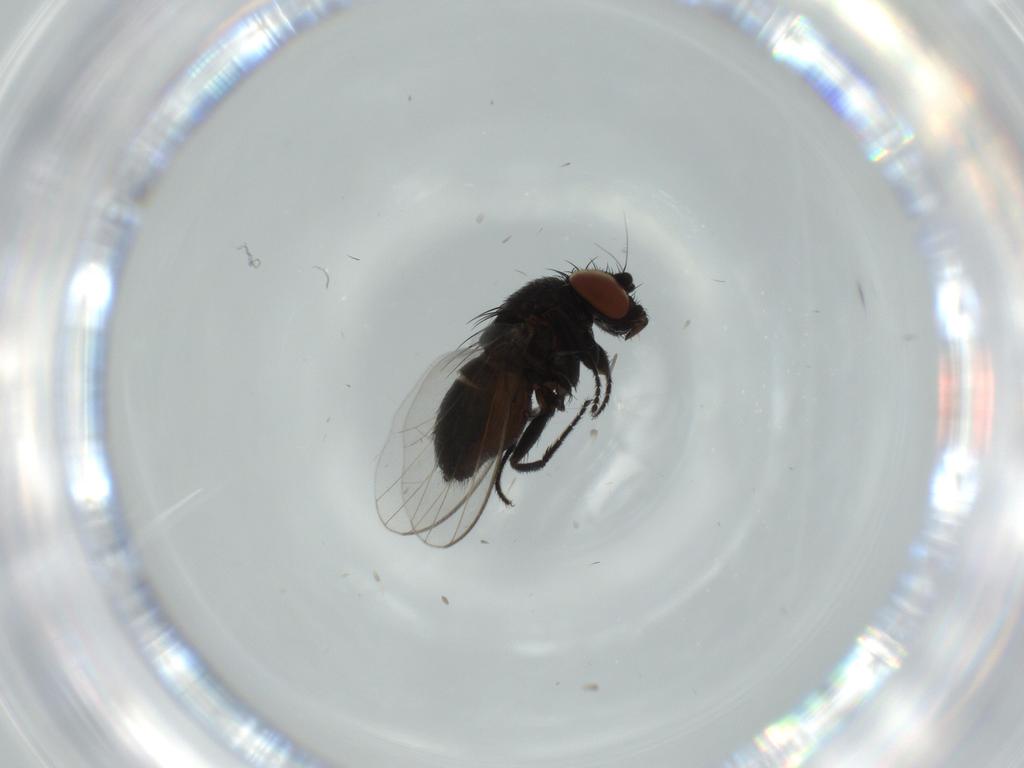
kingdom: Animalia
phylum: Arthropoda
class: Insecta
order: Diptera
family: Milichiidae
